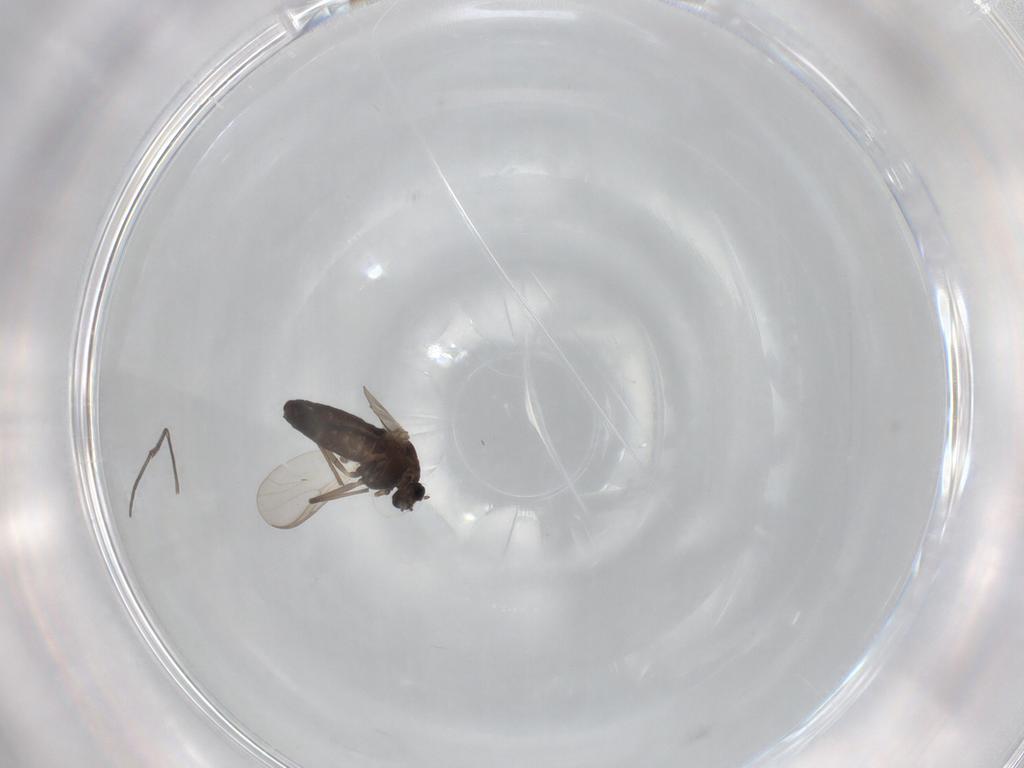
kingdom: Animalia
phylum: Arthropoda
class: Insecta
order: Diptera
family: Chironomidae
